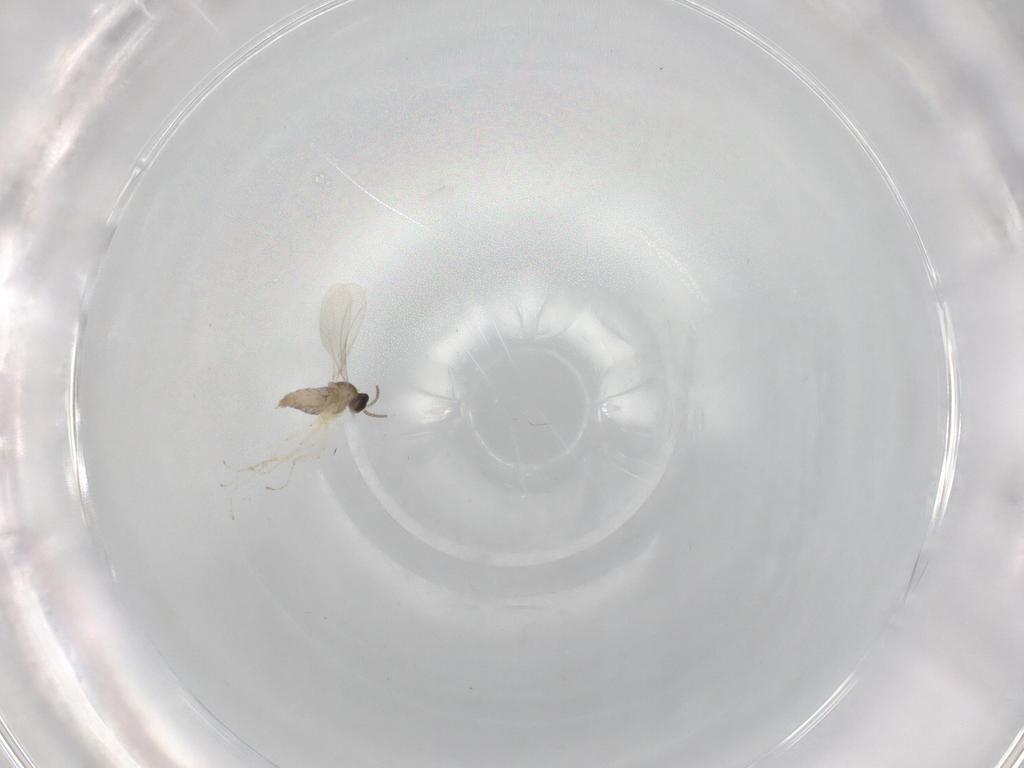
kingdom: Animalia
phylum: Arthropoda
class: Insecta
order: Diptera
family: Cecidomyiidae
